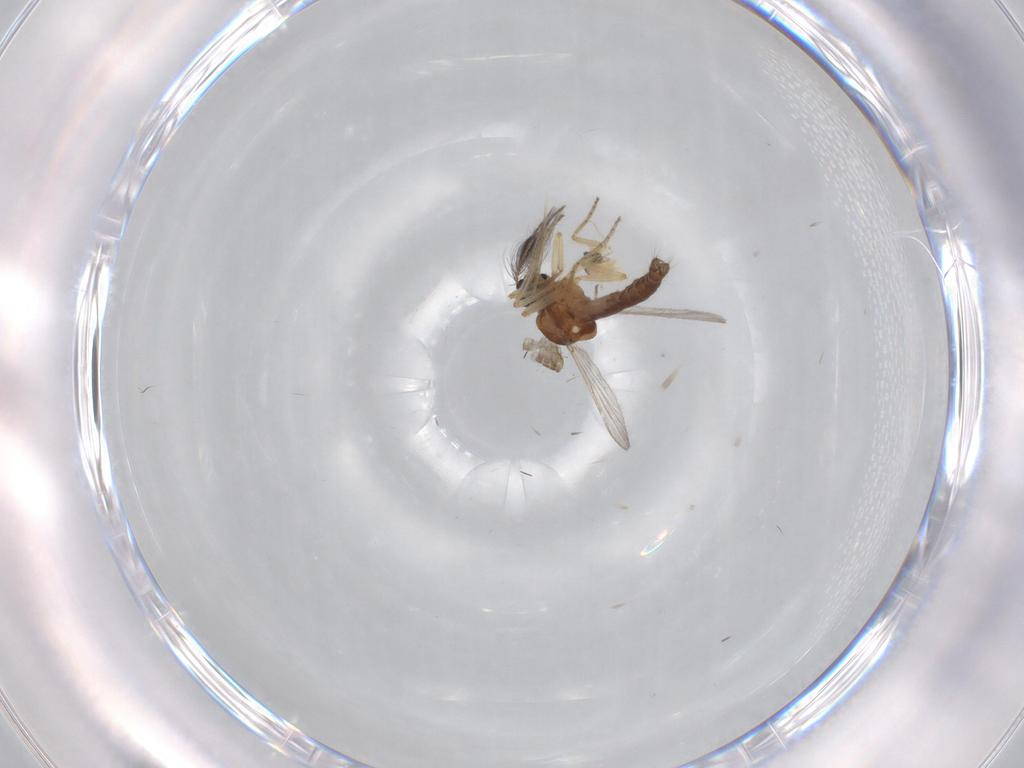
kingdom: Animalia
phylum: Arthropoda
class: Insecta
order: Diptera
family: Ceratopogonidae
